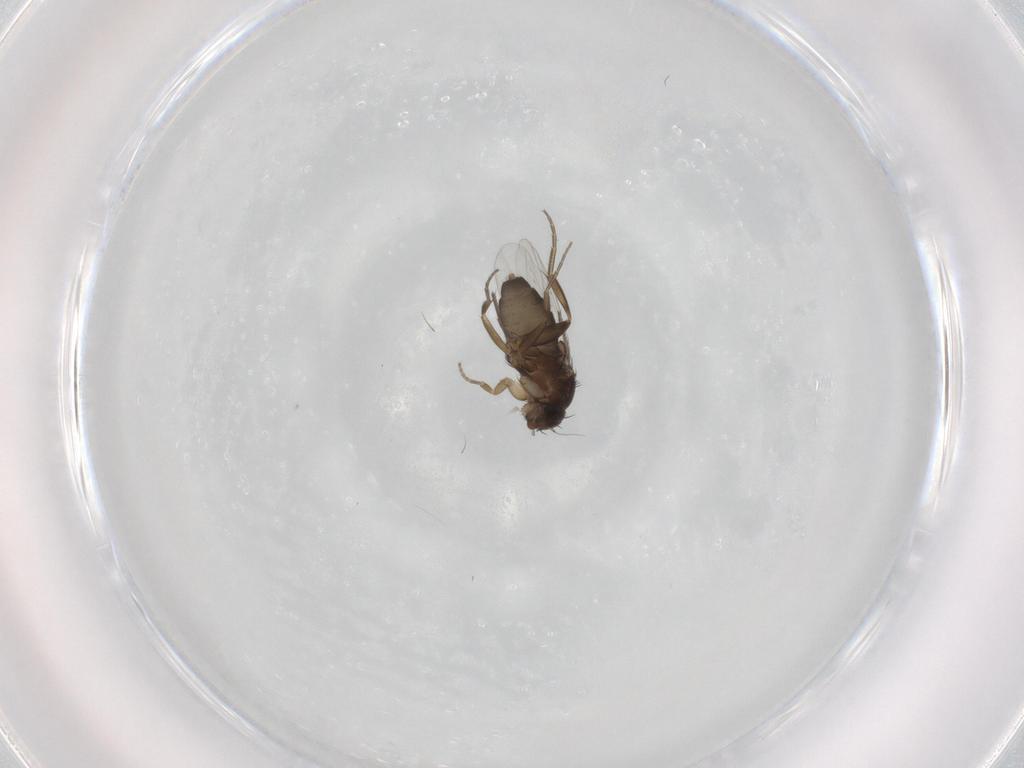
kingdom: Animalia
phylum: Arthropoda
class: Insecta
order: Diptera
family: Phoridae
